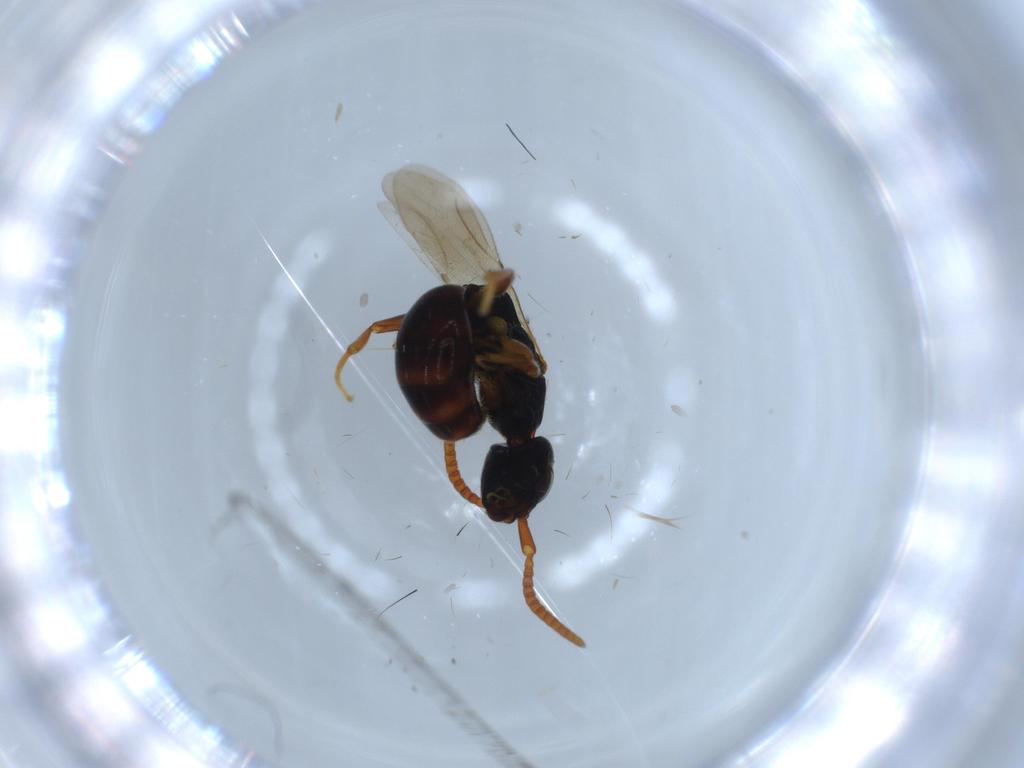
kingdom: Animalia
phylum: Arthropoda
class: Insecta
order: Hymenoptera
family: Bethylidae
